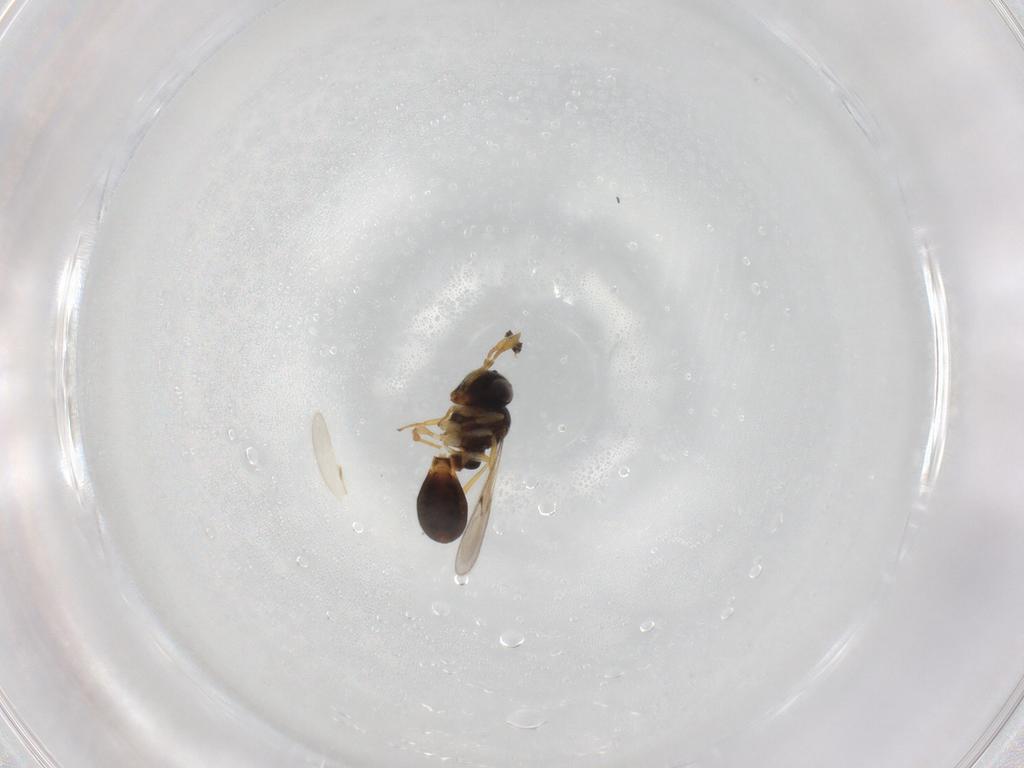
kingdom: Animalia
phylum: Arthropoda
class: Insecta
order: Hymenoptera
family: Scelionidae
